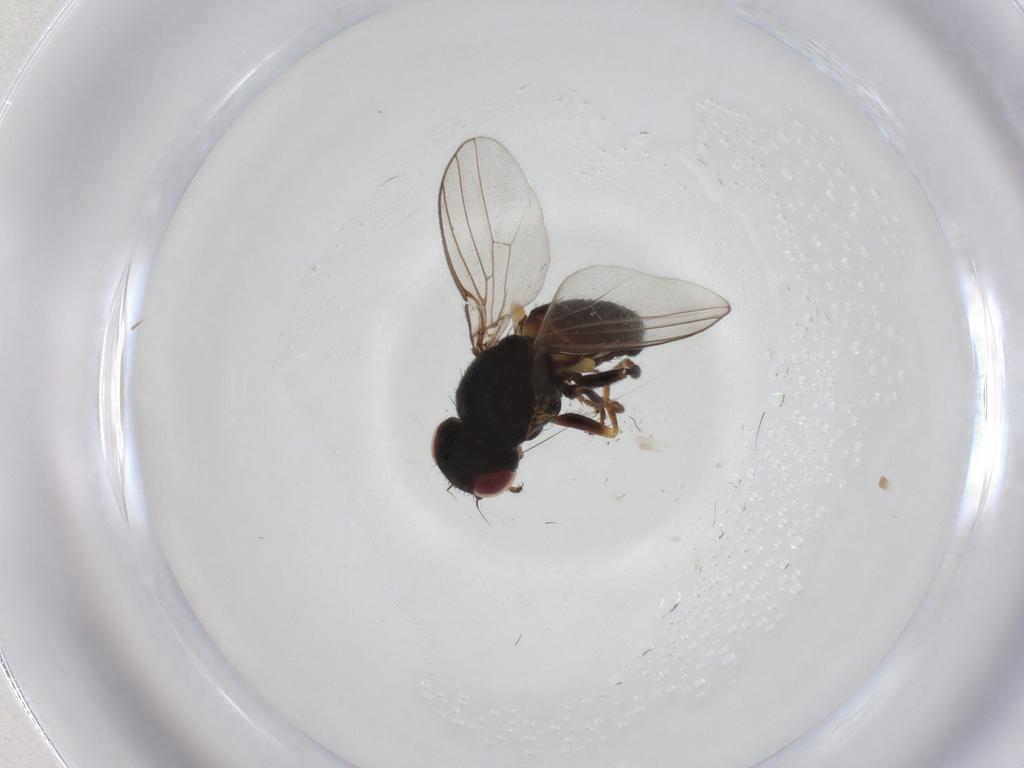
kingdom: Animalia
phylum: Arthropoda
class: Insecta
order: Diptera
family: Chloropidae
